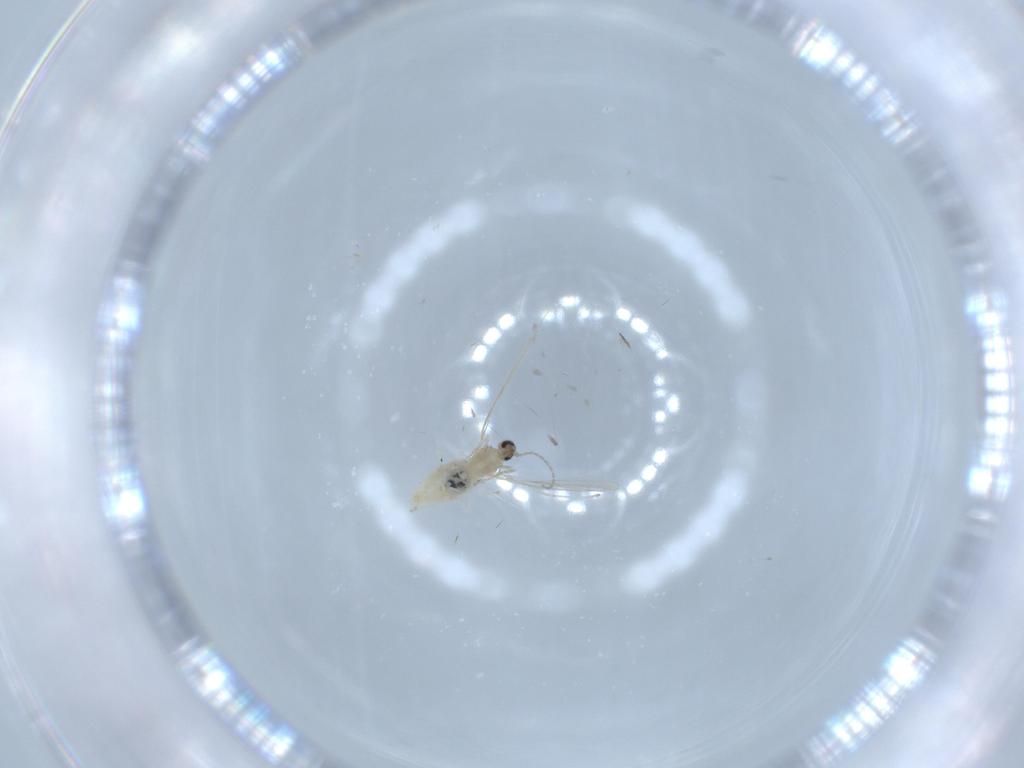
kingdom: Animalia
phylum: Arthropoda
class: Insecta
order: Diptera
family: Cecidomyiidae
